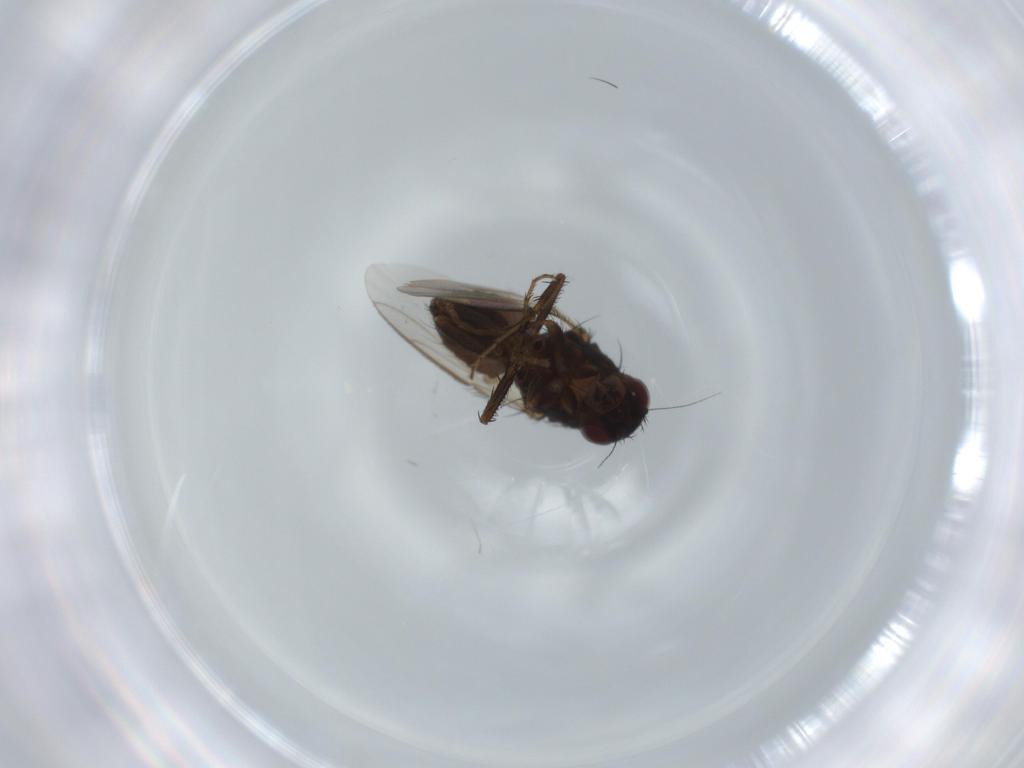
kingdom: Animalia
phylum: Arthropoda
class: Insecta
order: Diptera
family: Sphaeroceridae
